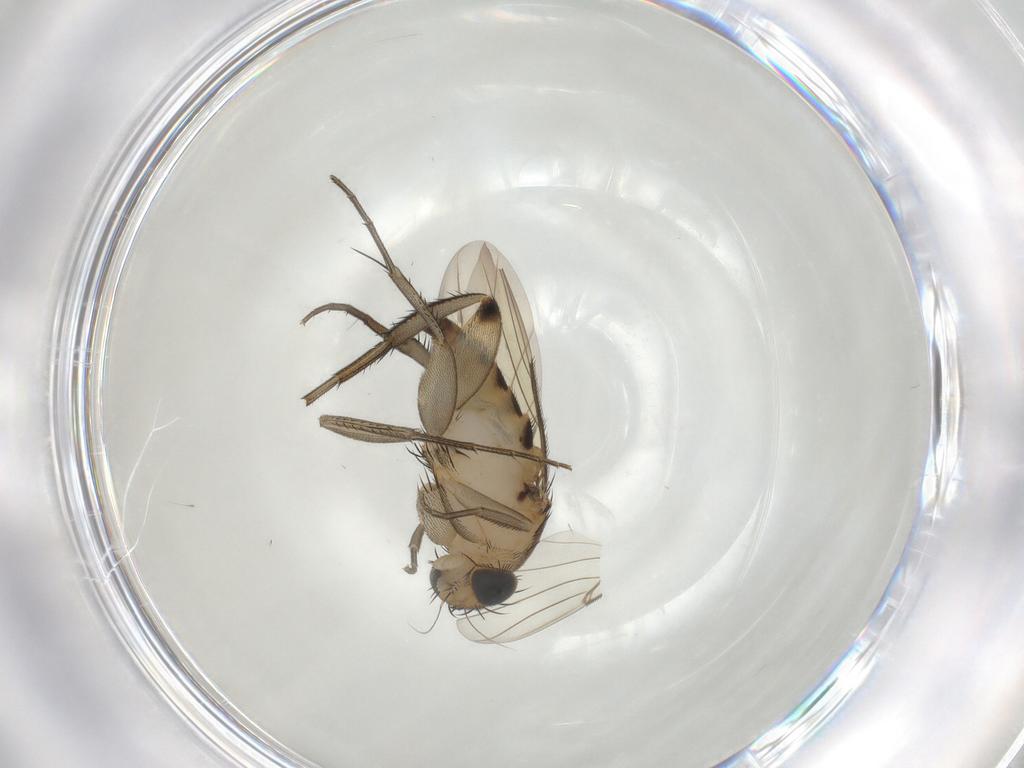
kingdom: Animalia
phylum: Arthropoda
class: Insecta
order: Diptera
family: Phoridae
